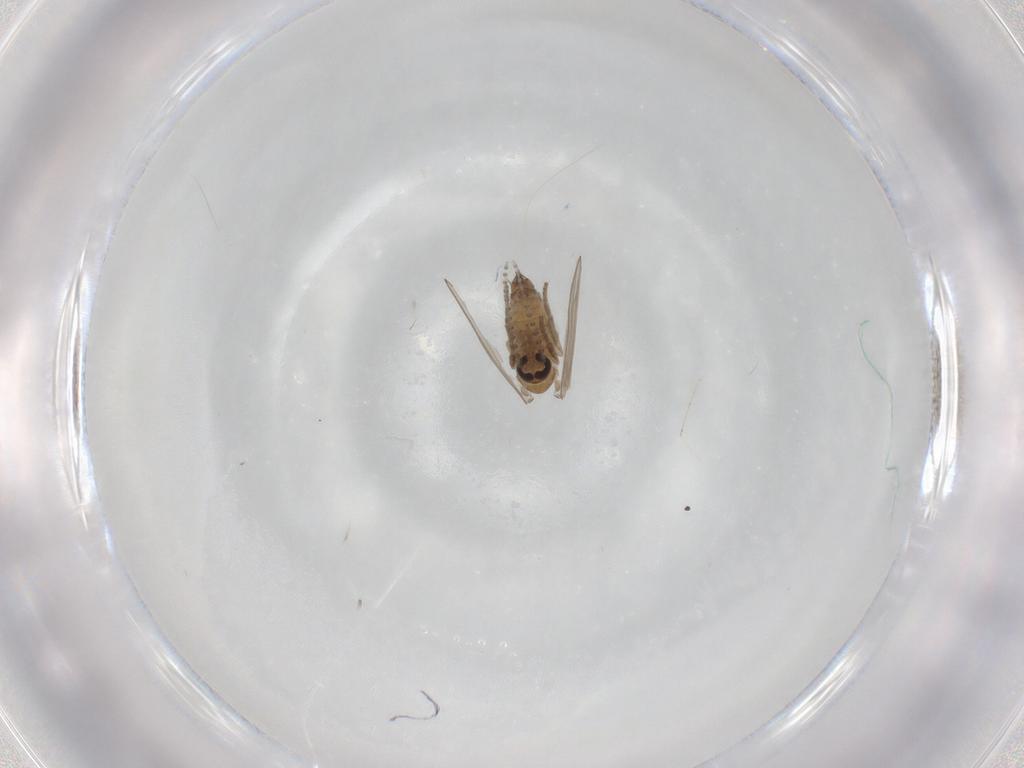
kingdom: Animalia
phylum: Arthropoda
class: Insecta
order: Diptera
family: Psychodidae
